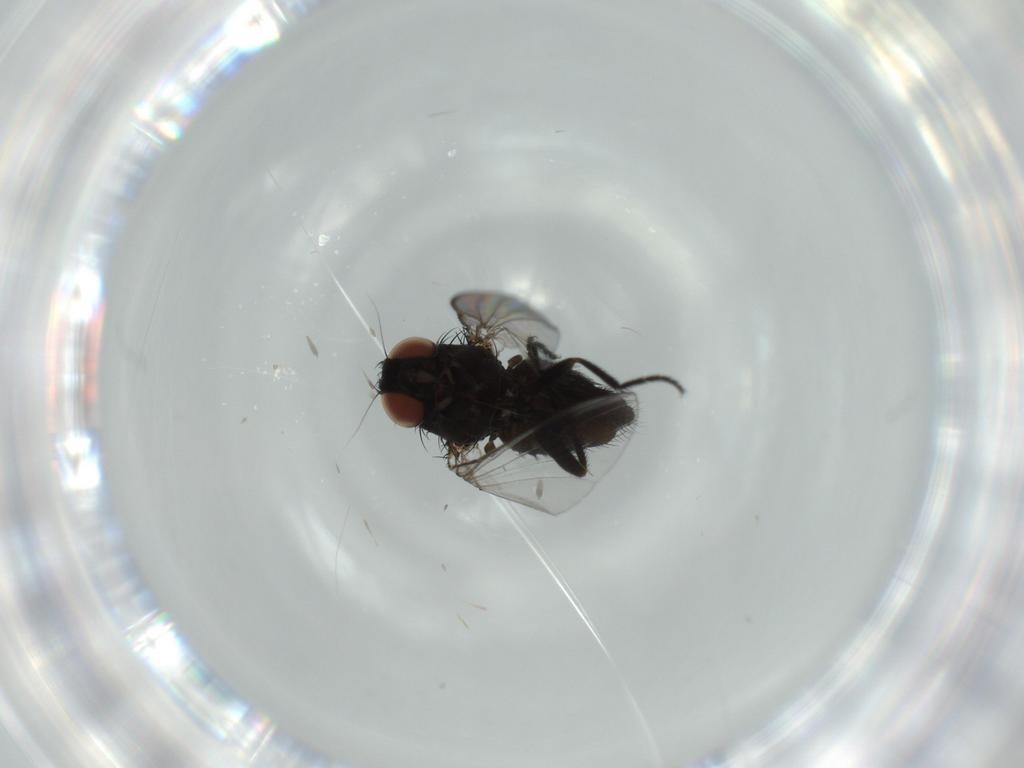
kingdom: Animalia
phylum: Arthropoda
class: Insecta
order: Diptera
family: Milichiidae
